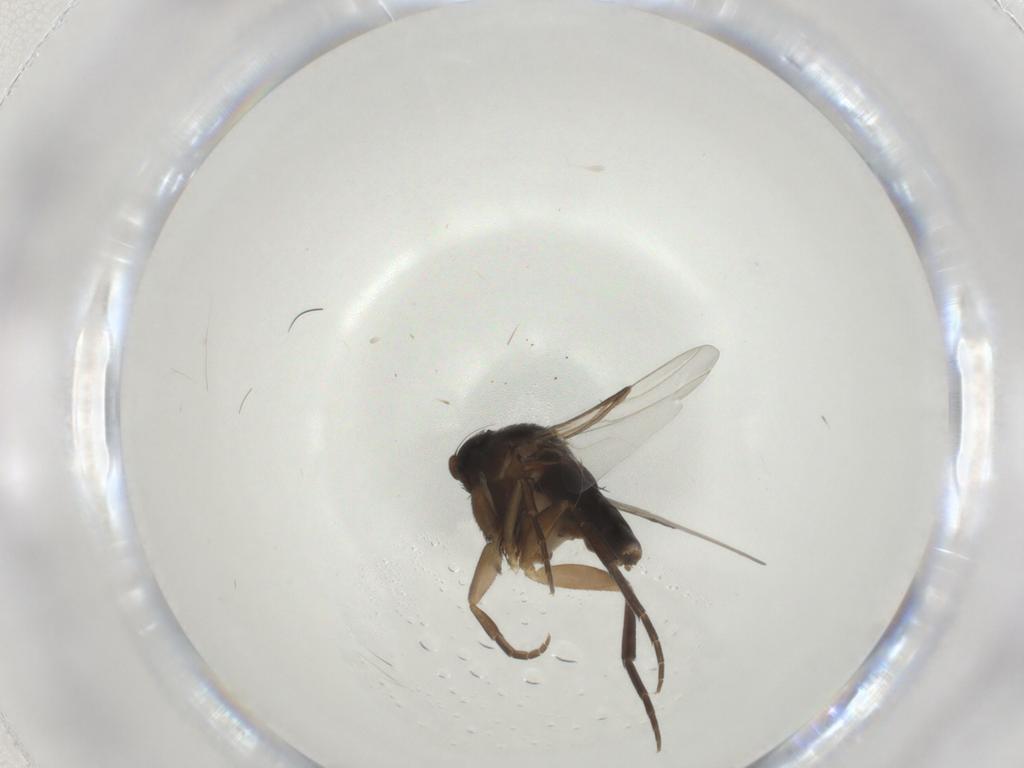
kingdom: Animalia
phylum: Arthropoda
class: Insecta
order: Diptera
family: Phoridae
